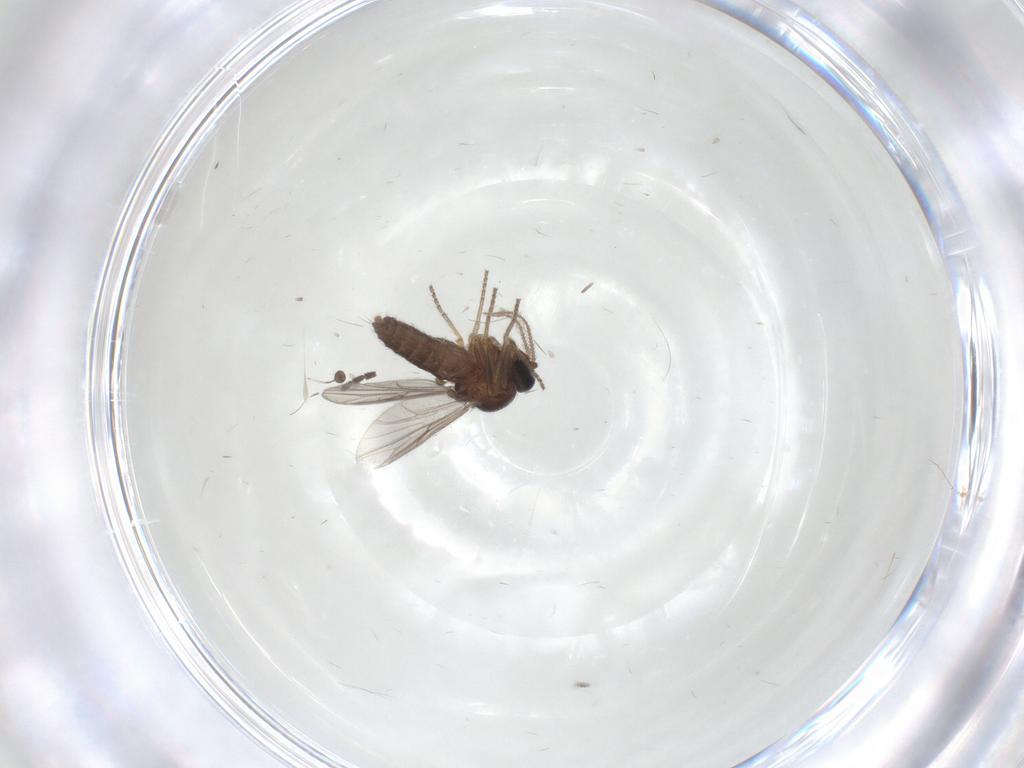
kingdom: Animalia
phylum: Arthropoda
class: Insecta
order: Diptera
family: Ceratopogonidae
